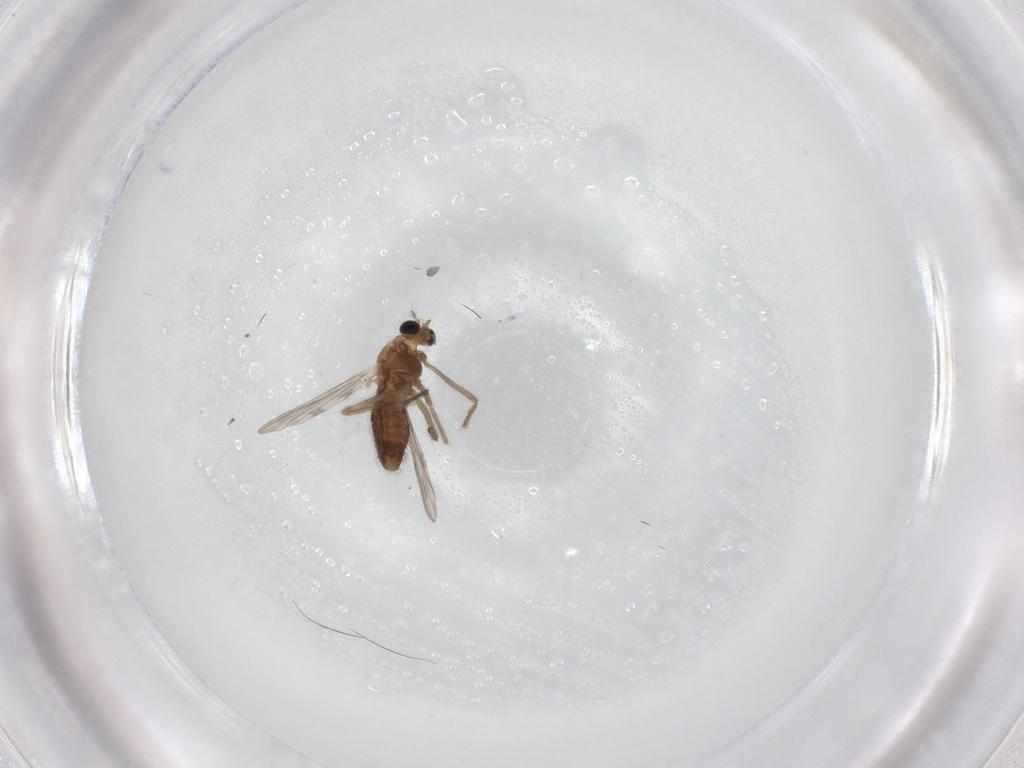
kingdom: Animalia
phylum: Arthropoda
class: Insecta
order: Diptera
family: Chironomidae
